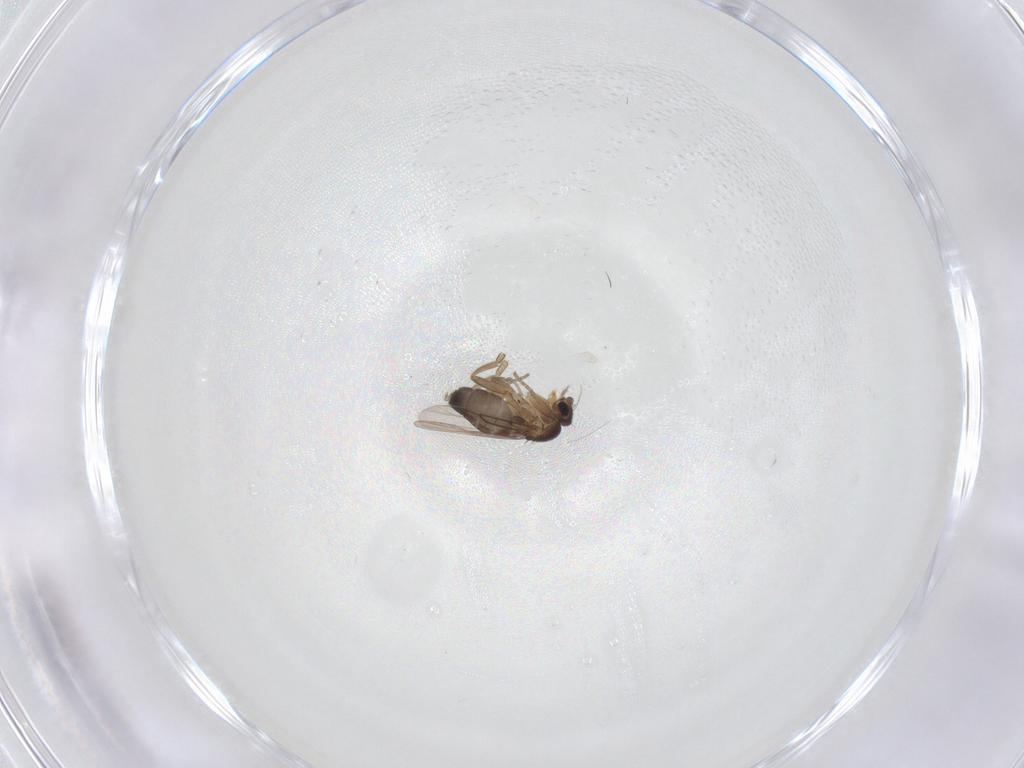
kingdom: Animalia
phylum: Arthropoda
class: Insecta
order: Diptera
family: Phoridae
